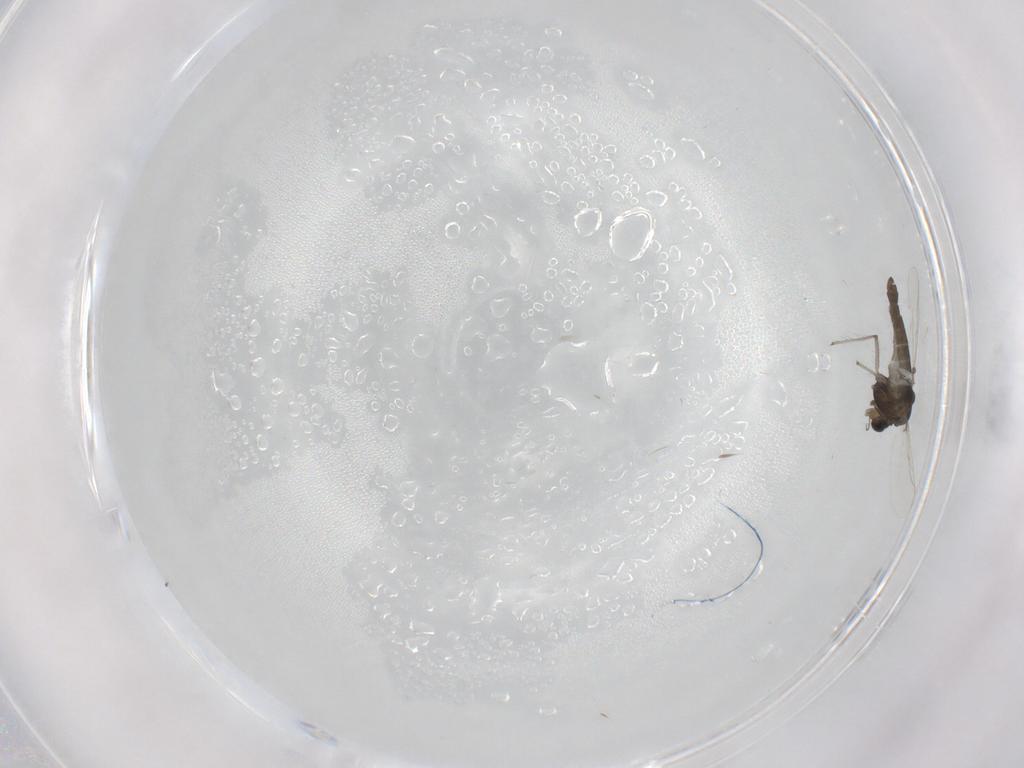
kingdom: Animalia
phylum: Arthropoda
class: Insecta
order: Diptera
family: Chironomidae
